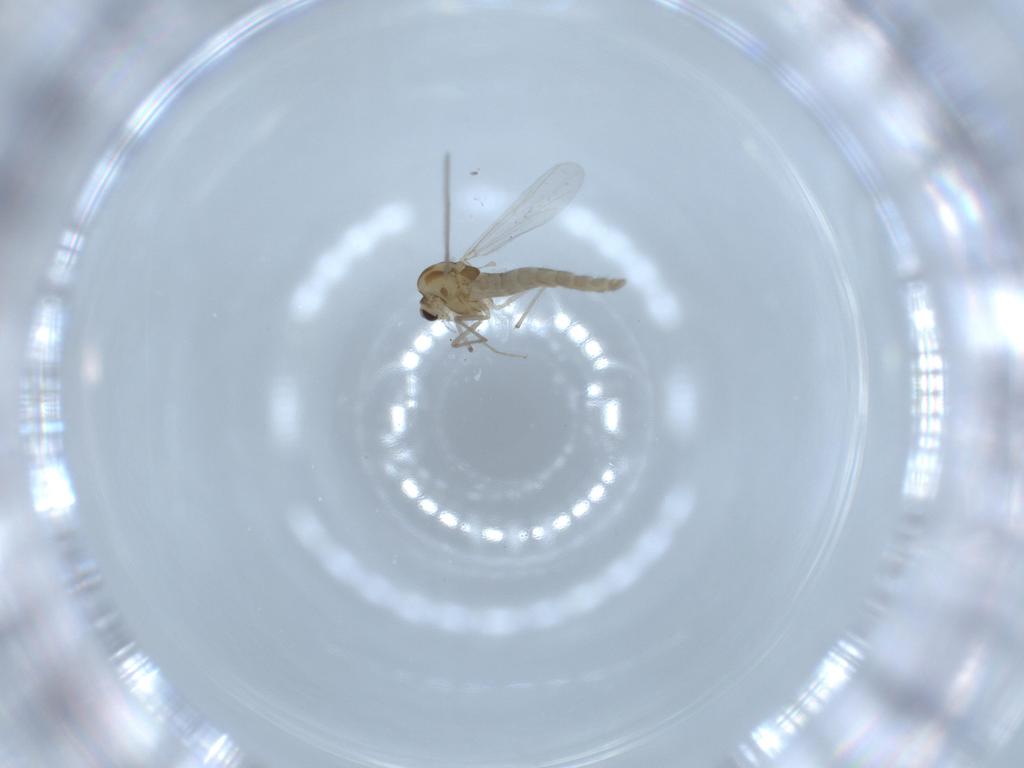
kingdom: Animalia
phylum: Arthropoda
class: Insecta
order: Diptera
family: Chironomidae
